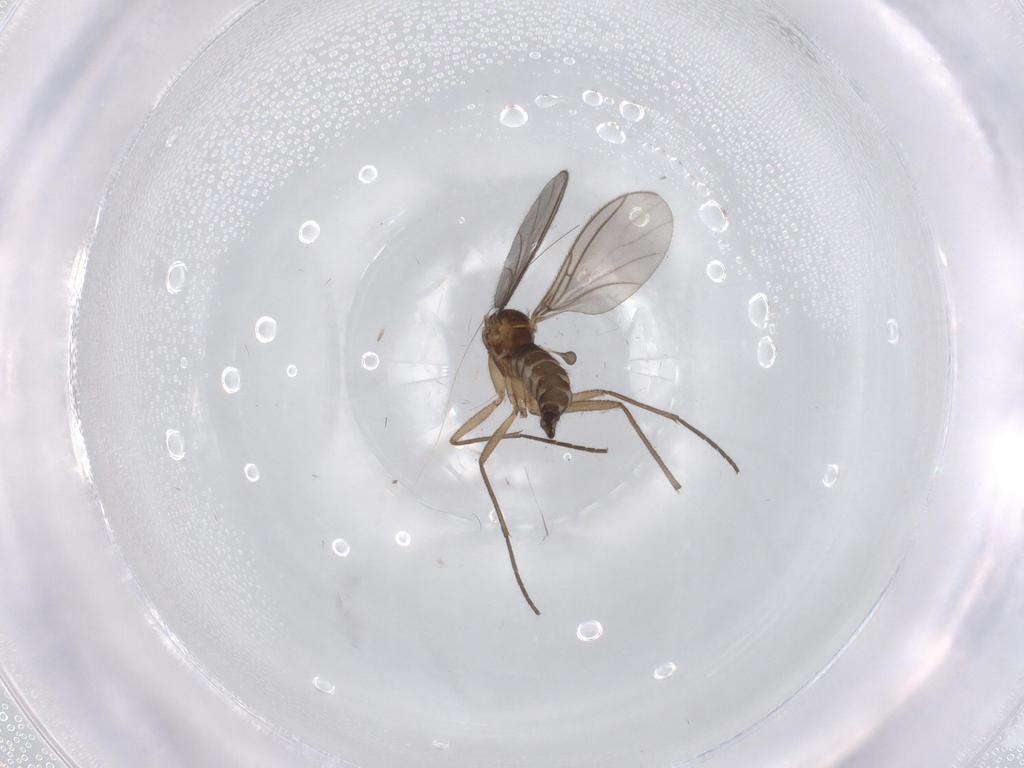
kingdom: Animalia
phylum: Arthropoda
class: Insecta
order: Diptera
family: Sciaridae
